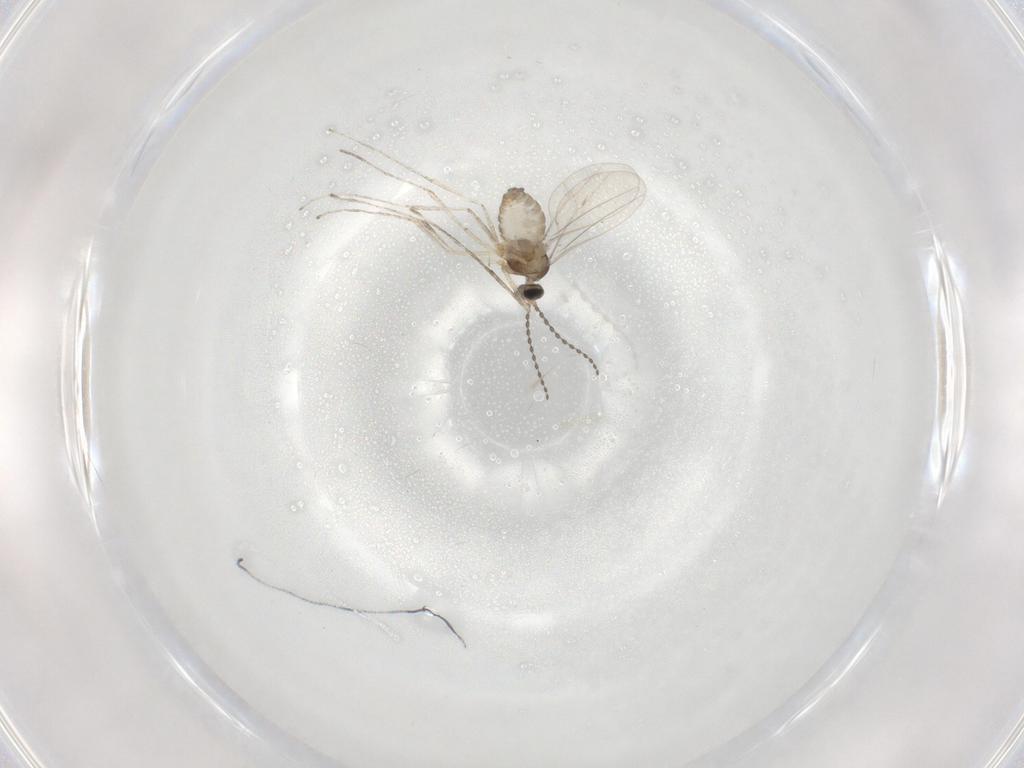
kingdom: Animalia
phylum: Arthropoda
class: Insecta
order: Diptera
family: Cecidomyiidae
